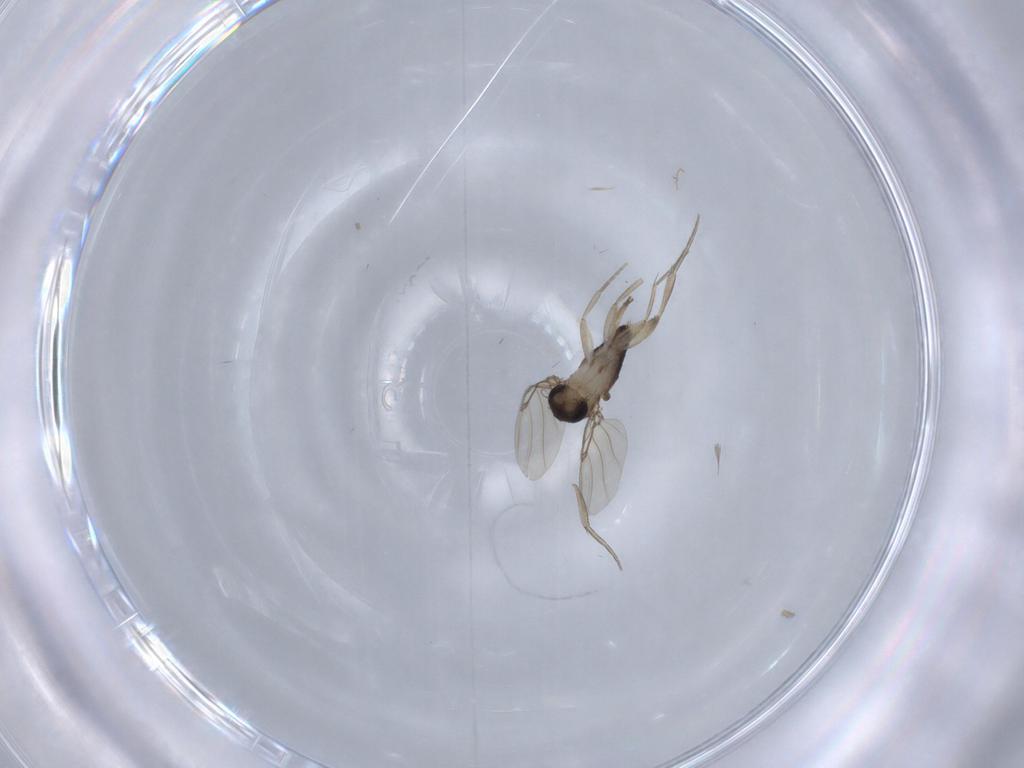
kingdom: Animalia
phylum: Arthropoda
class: Insecta
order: Diptera
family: Phoridae
